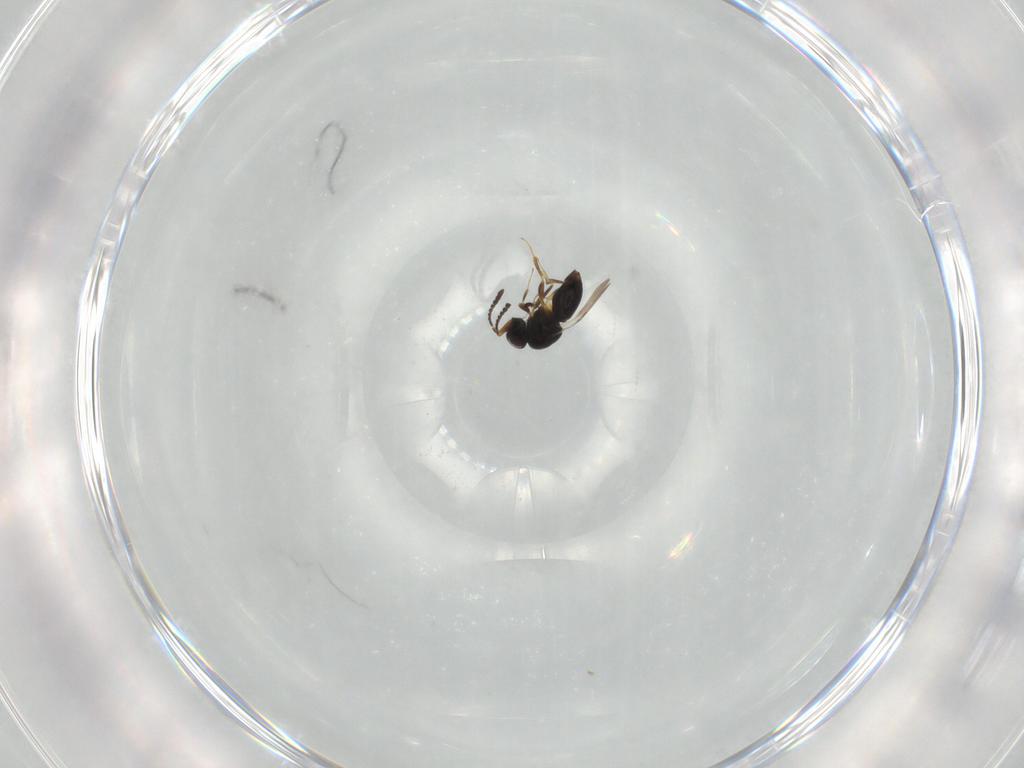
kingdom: Animalia
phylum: Arthropoda
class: Insecta
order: Hymenoptera
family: Ceraphronidae
